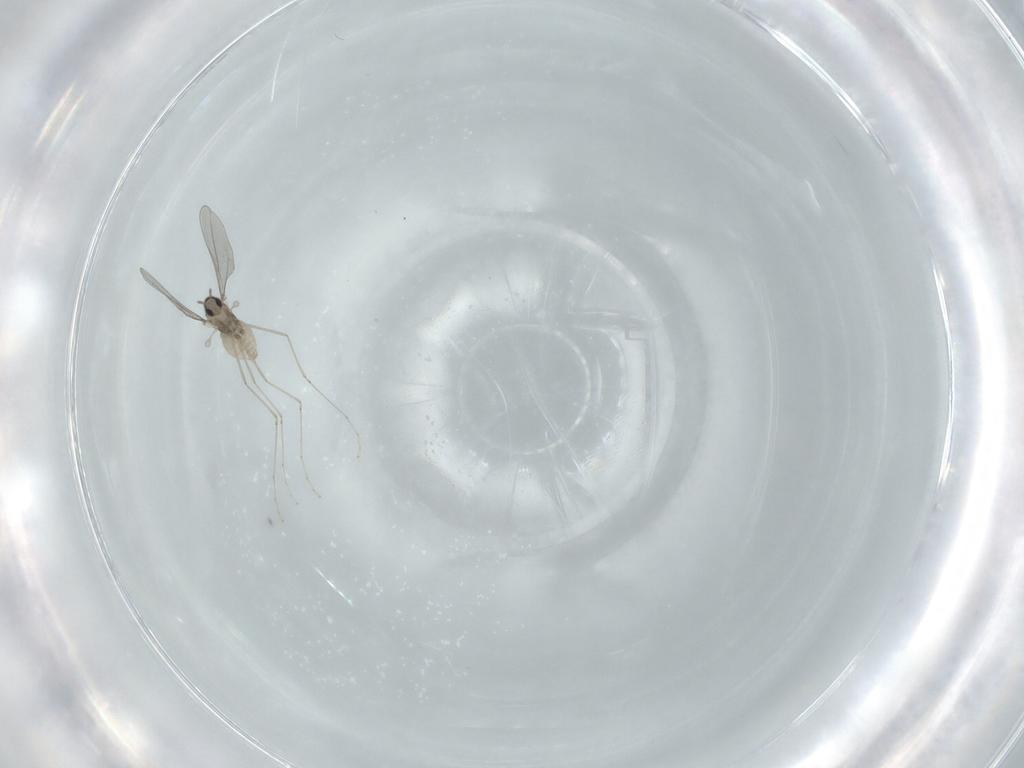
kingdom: Animalia
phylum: Arthropoda
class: Insecta
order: Diptera
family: Cecidomyiidae
